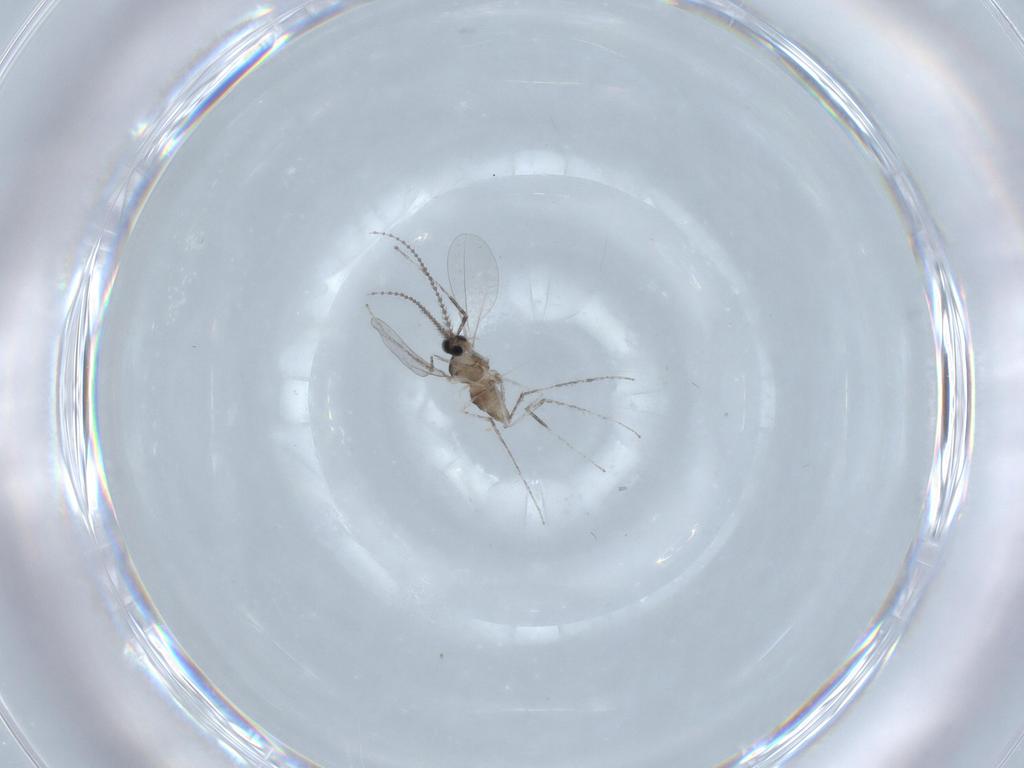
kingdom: Animalia
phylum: Arthropoda
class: Insecta
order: Diptera
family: Cecidomyiidae
